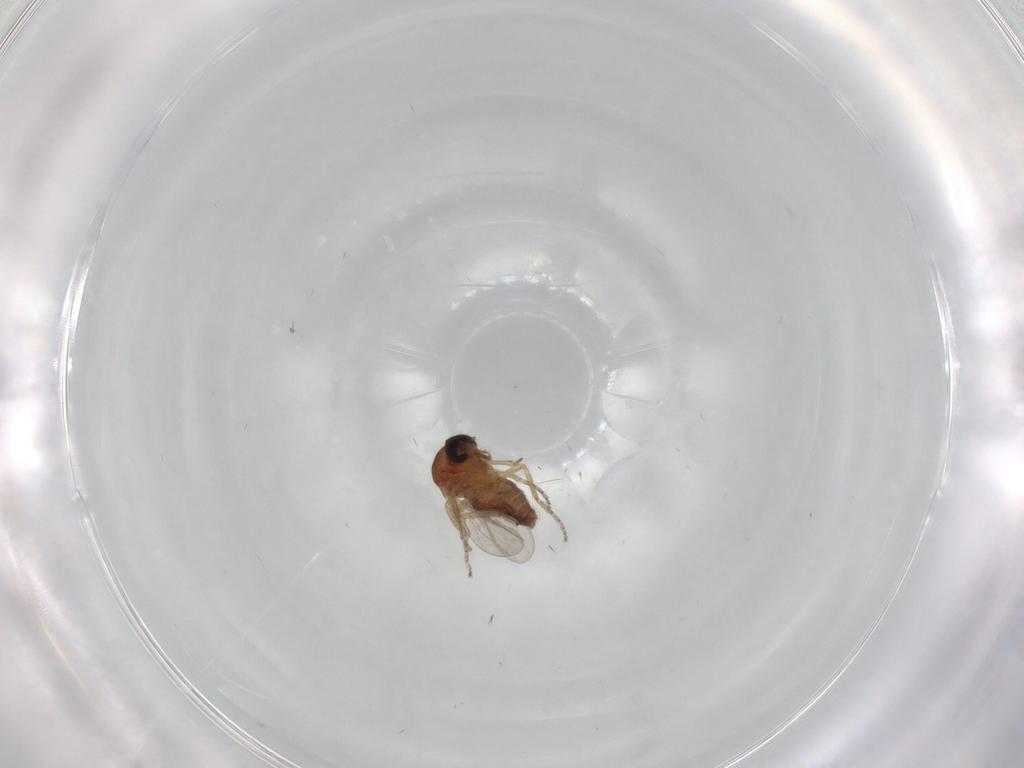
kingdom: Animalia
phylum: Arthropoda
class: Insecta
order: Diptera
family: Ceratopogonidae
